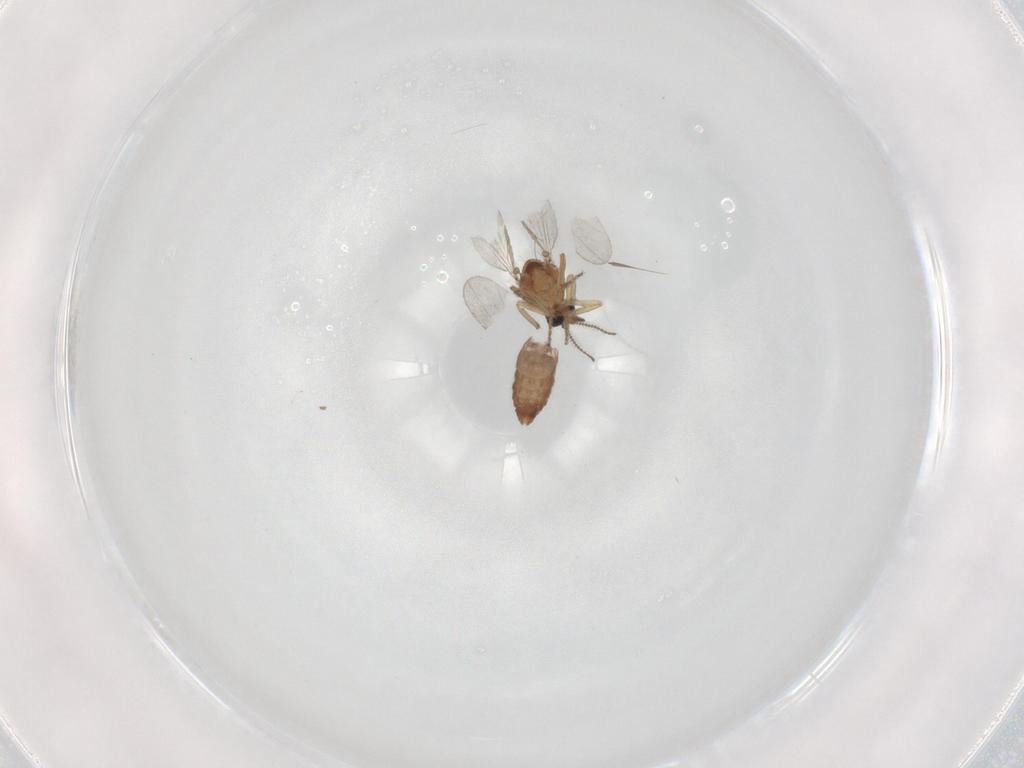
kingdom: Animalia
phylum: Arthropoda
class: Insecta
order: Diptera
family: Ceratopogonidae
